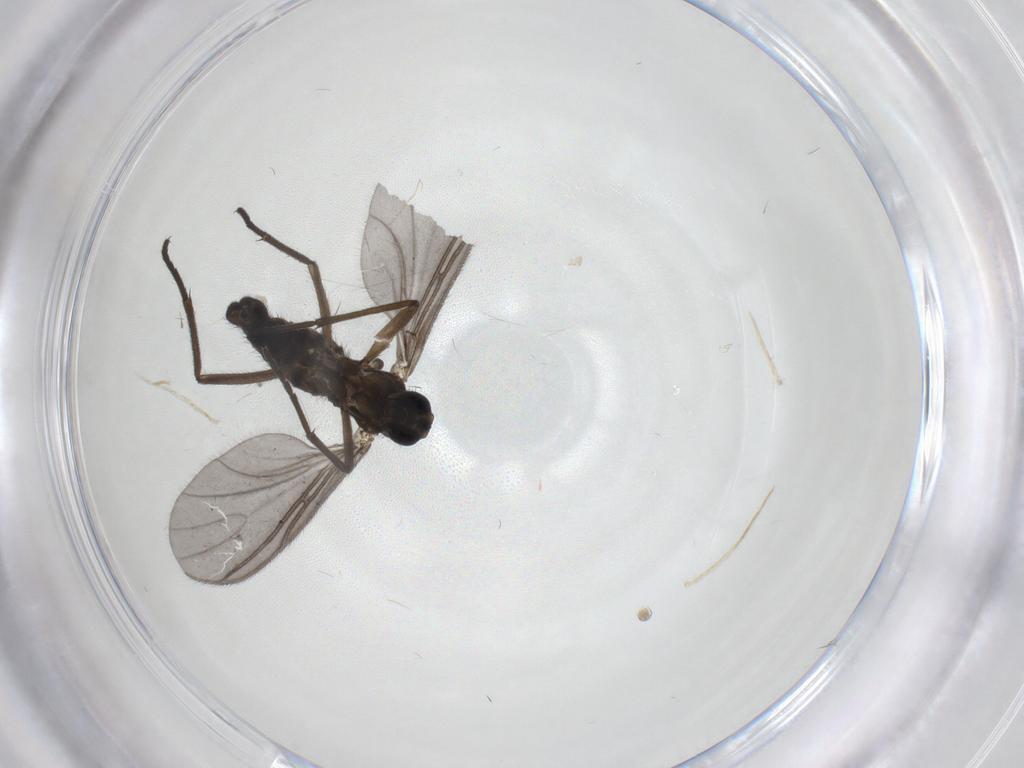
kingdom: Animalia
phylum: Arthropoda
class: Insecta
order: Diptera
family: Sciaridae
